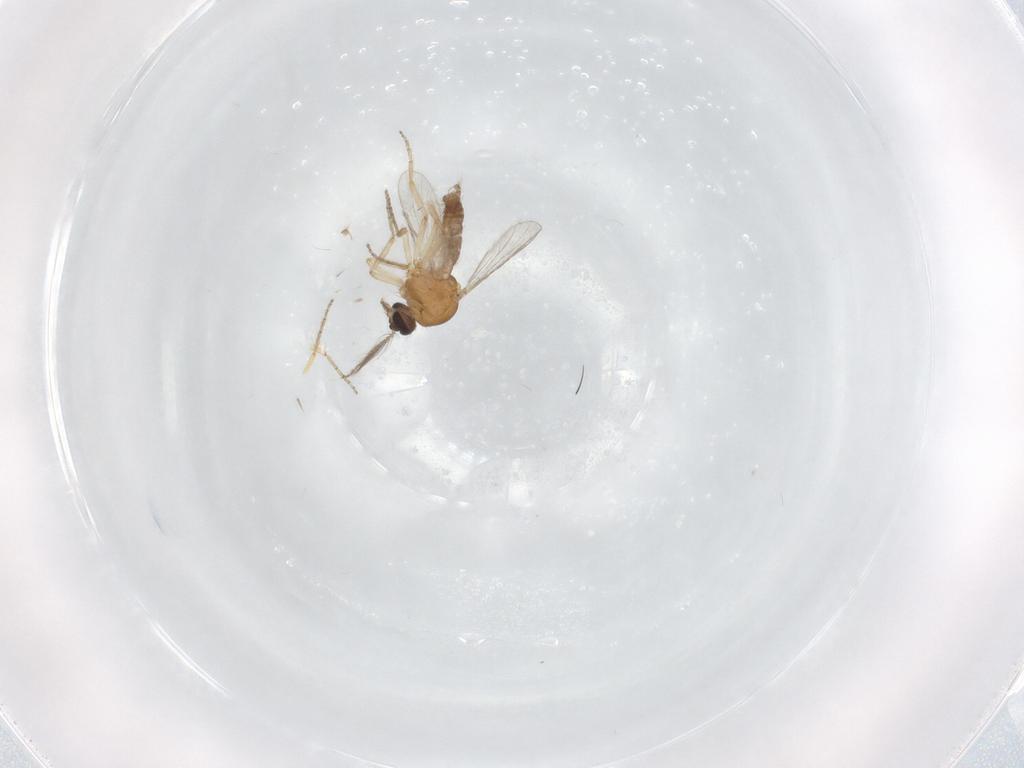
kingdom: Animalia
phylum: Arthropoda
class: Insecta
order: Diptera
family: Ceratopogonidae
